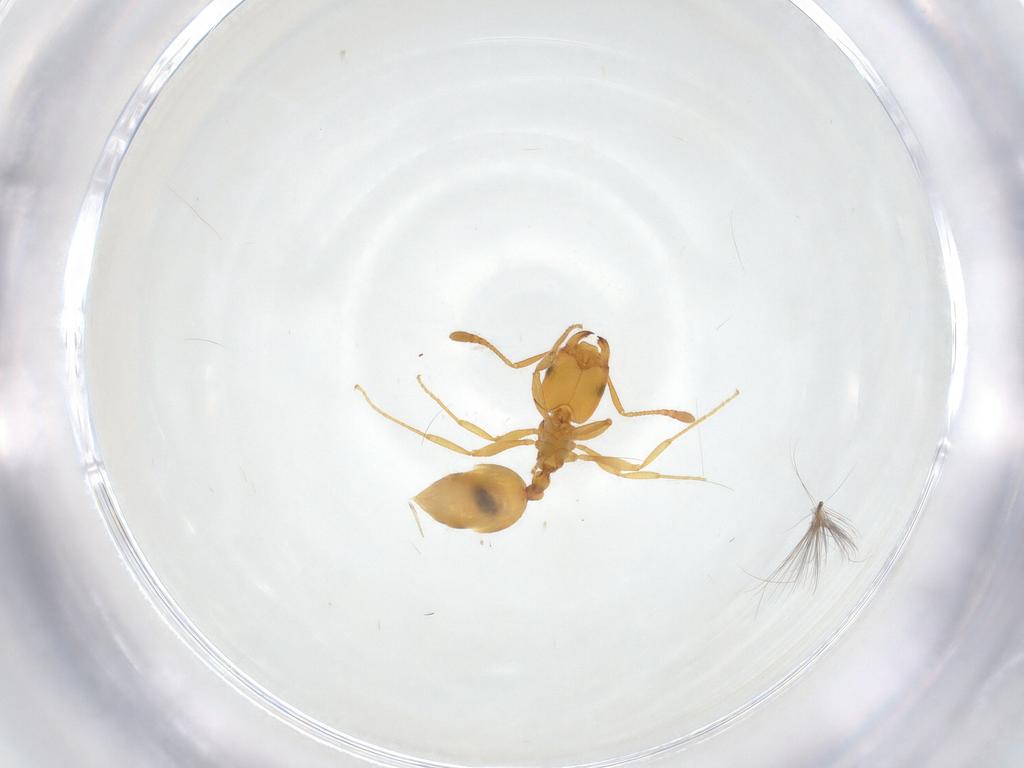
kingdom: Animalia
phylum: Arthropoda
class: Insecta
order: Hymenoptera
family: Formicidae
